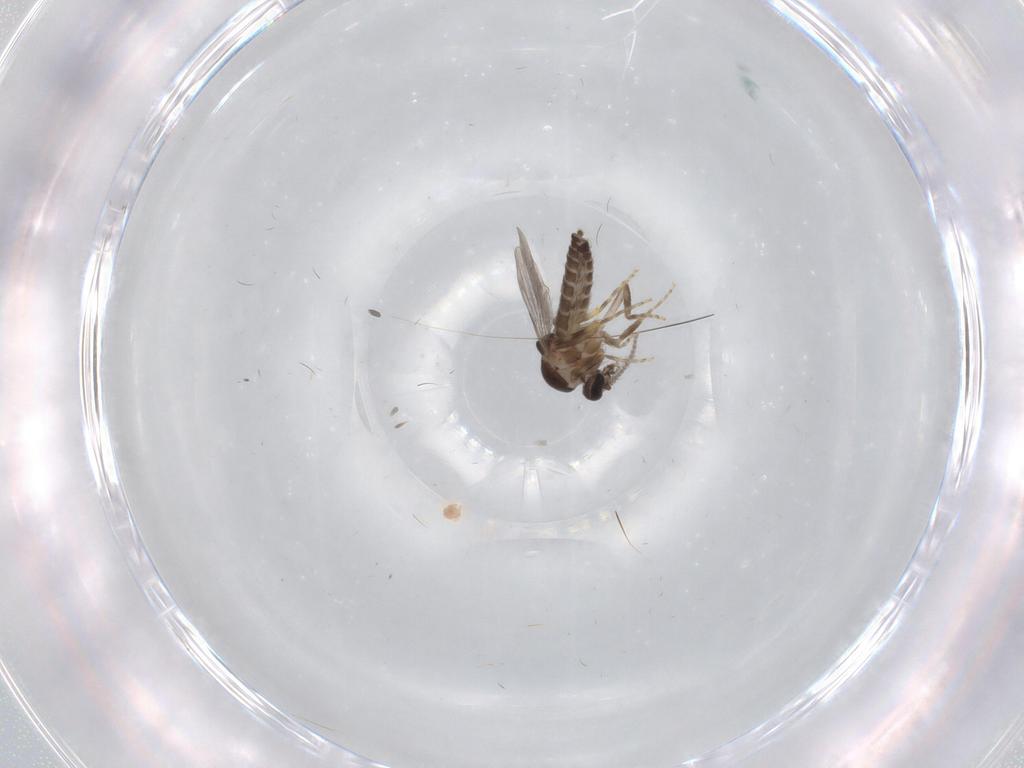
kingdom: Animalia
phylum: Arthropoda
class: Insecta
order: Diptera
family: Ceratopogonidae
